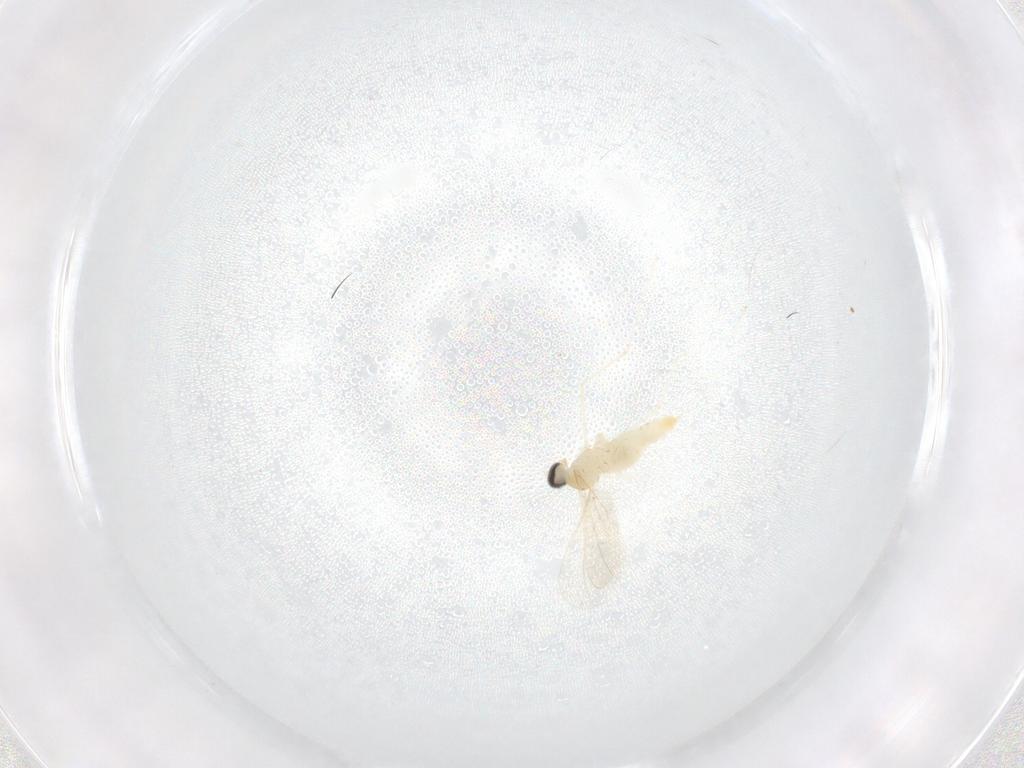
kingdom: Animalia
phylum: Arthropoda
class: Insecta
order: Diptera
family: Cecidomyiidae
